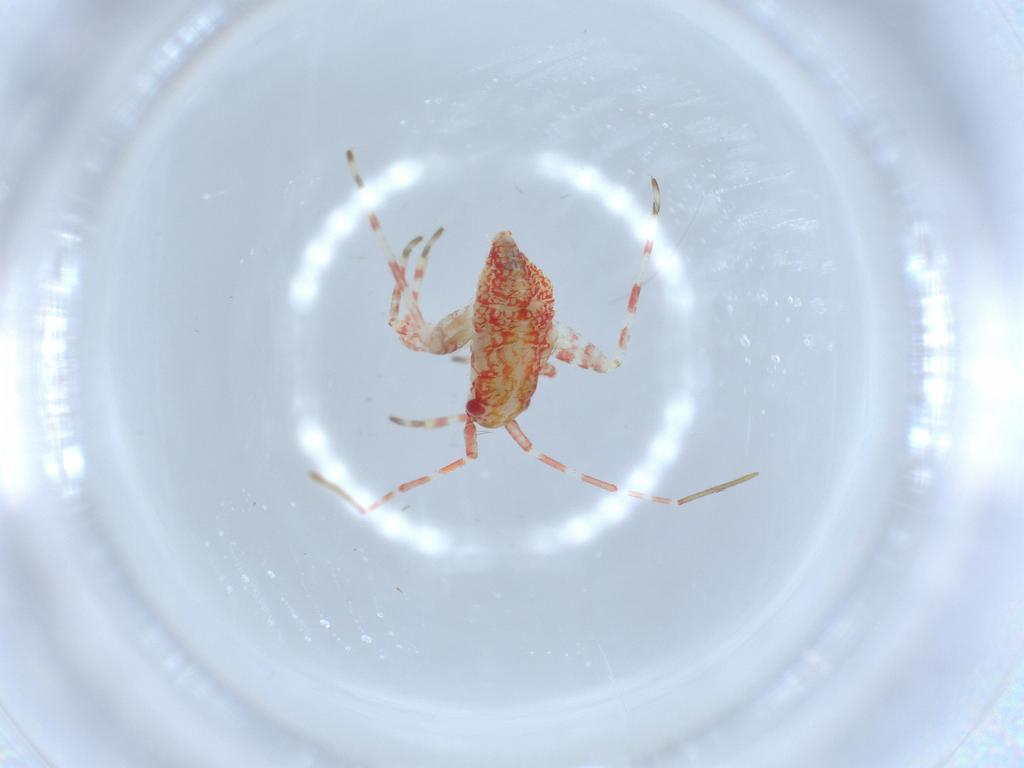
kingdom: Animalia
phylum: Arthropoda
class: Insecta
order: Hemiptera
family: Miridae
